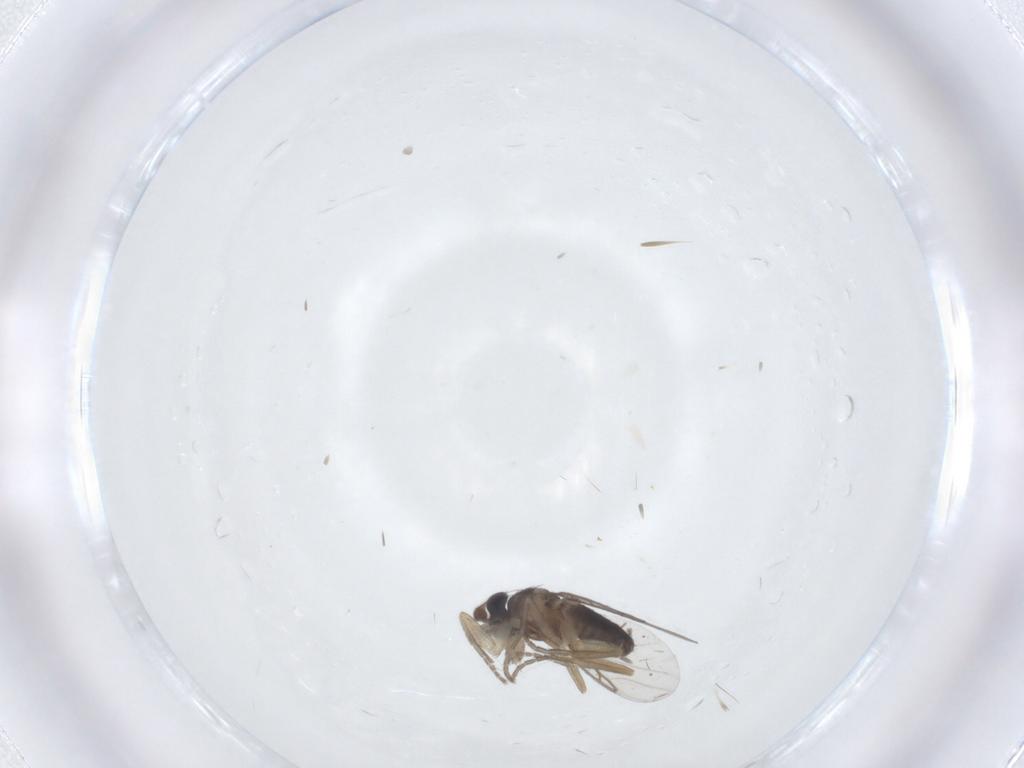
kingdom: Animalia
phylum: Arthropoda
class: Insecta
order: Diptera
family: Phoridae
